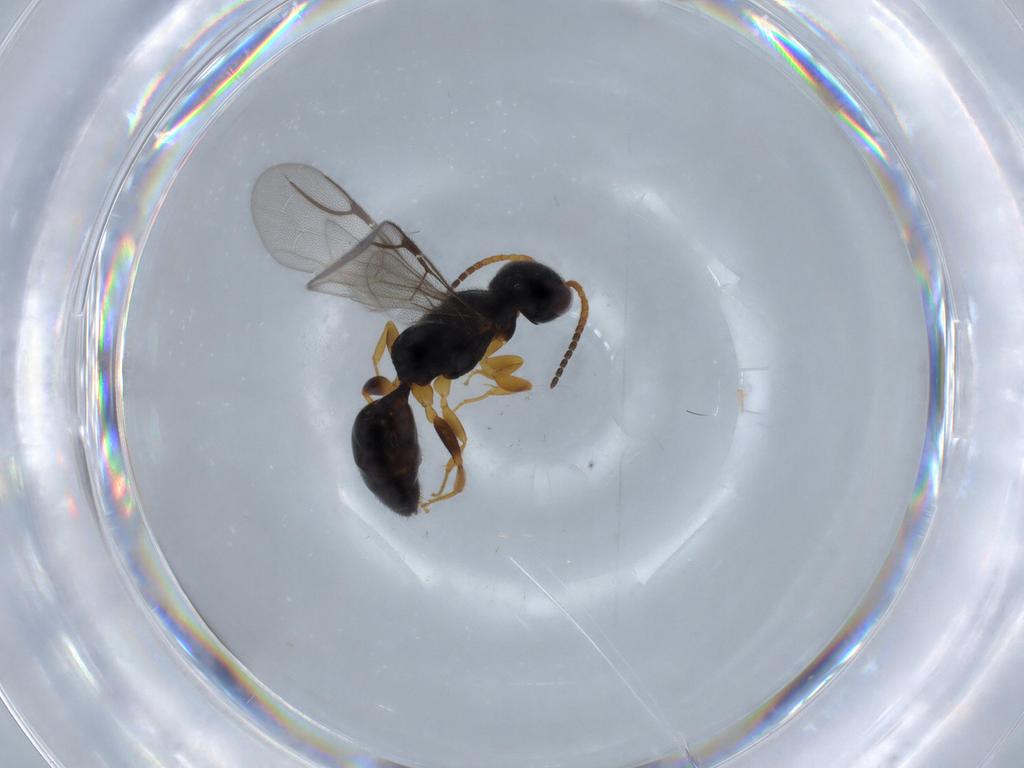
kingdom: Animalia
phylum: Arthropoda
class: Insecta
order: Hymenoptera
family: Bethylidae
